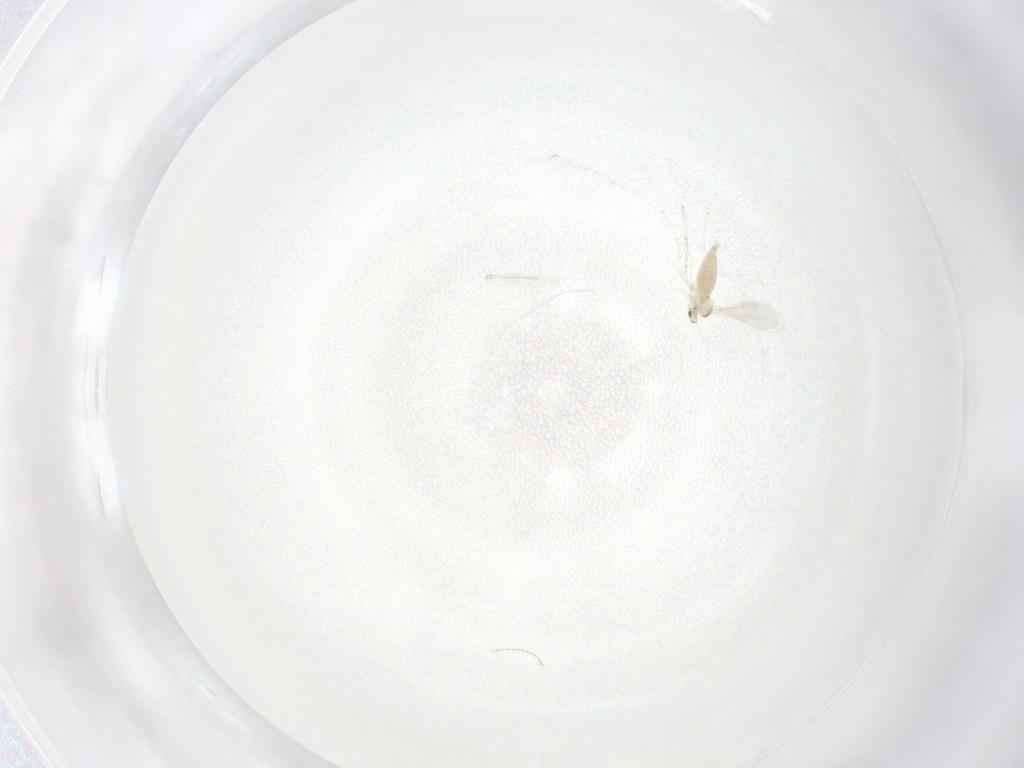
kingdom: Animalia
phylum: Arthropoda
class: Insecta
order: Diptera
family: Cecidomyiidae
